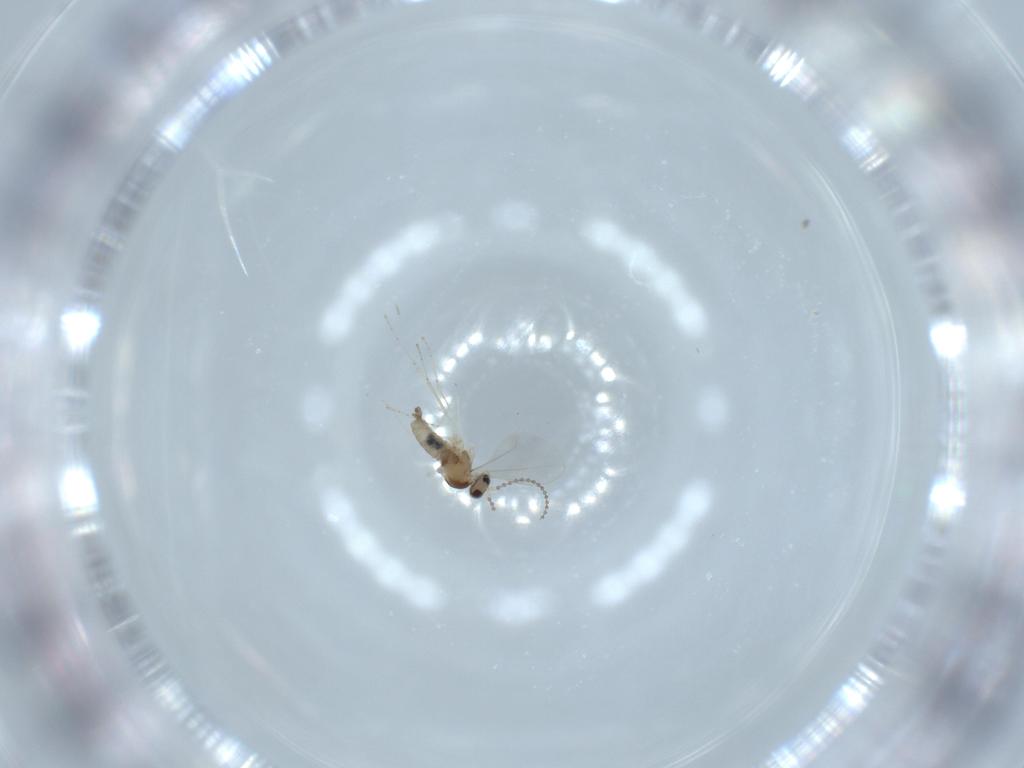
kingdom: Animalia
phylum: Arthropoda
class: Insecta
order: Diptera
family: Cecidomyiidae
